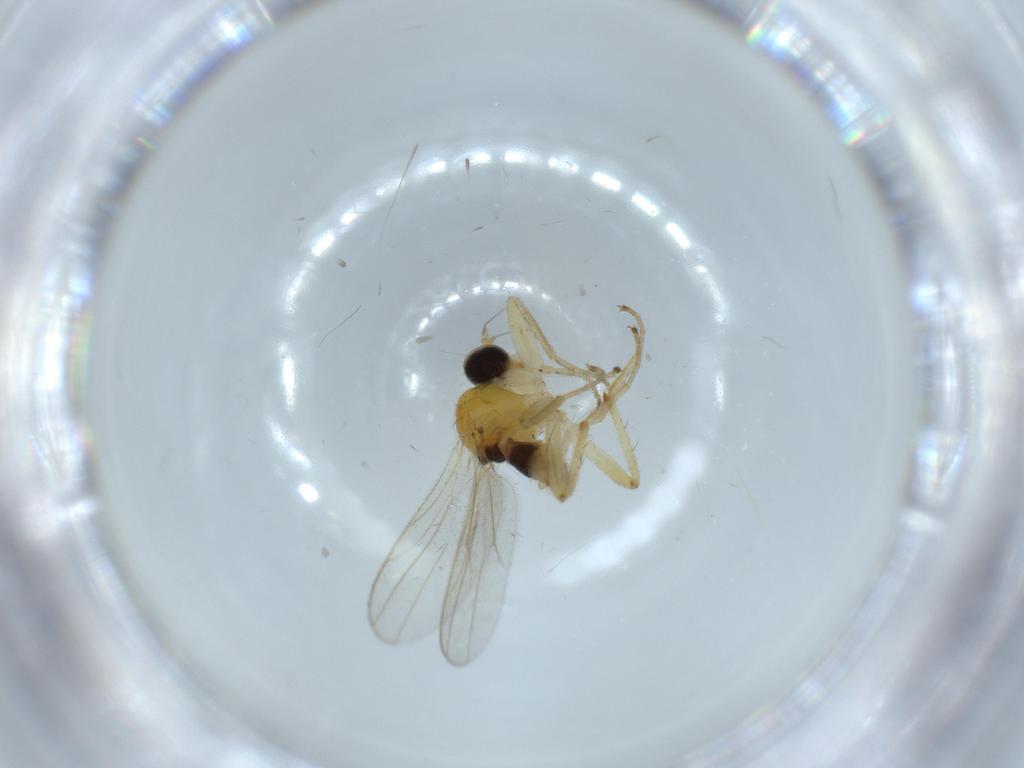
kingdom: Animalia
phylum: Arthropoda
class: Insecta
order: Diptera
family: Hybotidae
